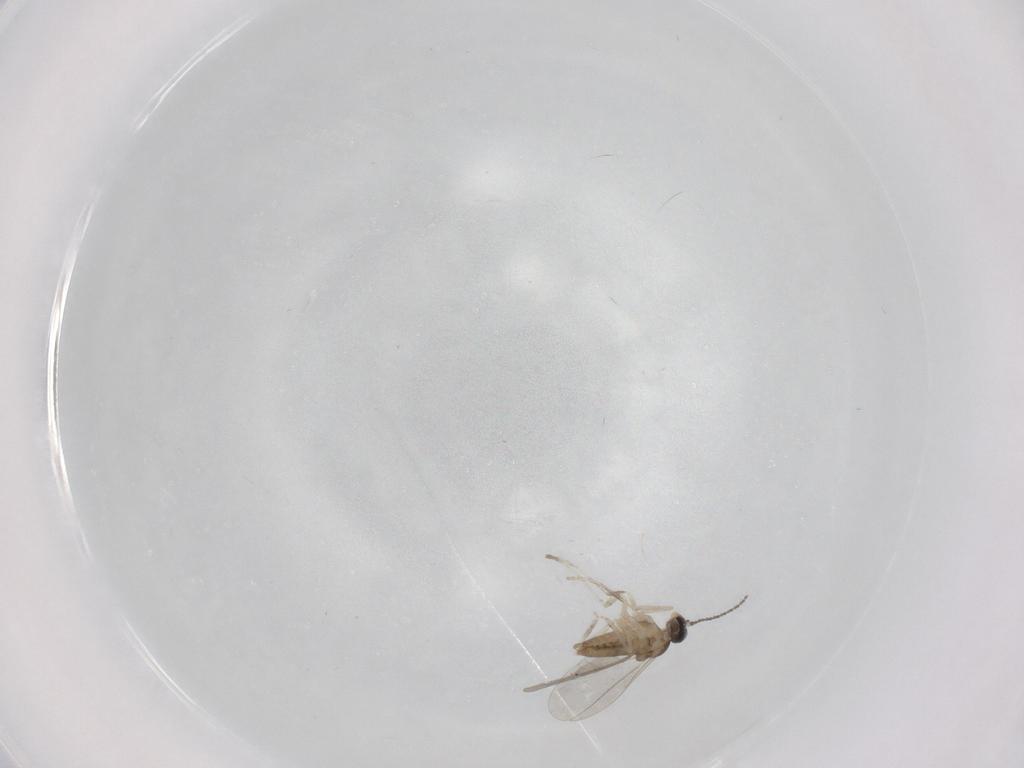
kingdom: Animalia
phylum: Arthropoda
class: Insecta
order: Diptera
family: Cecidomyiidae
